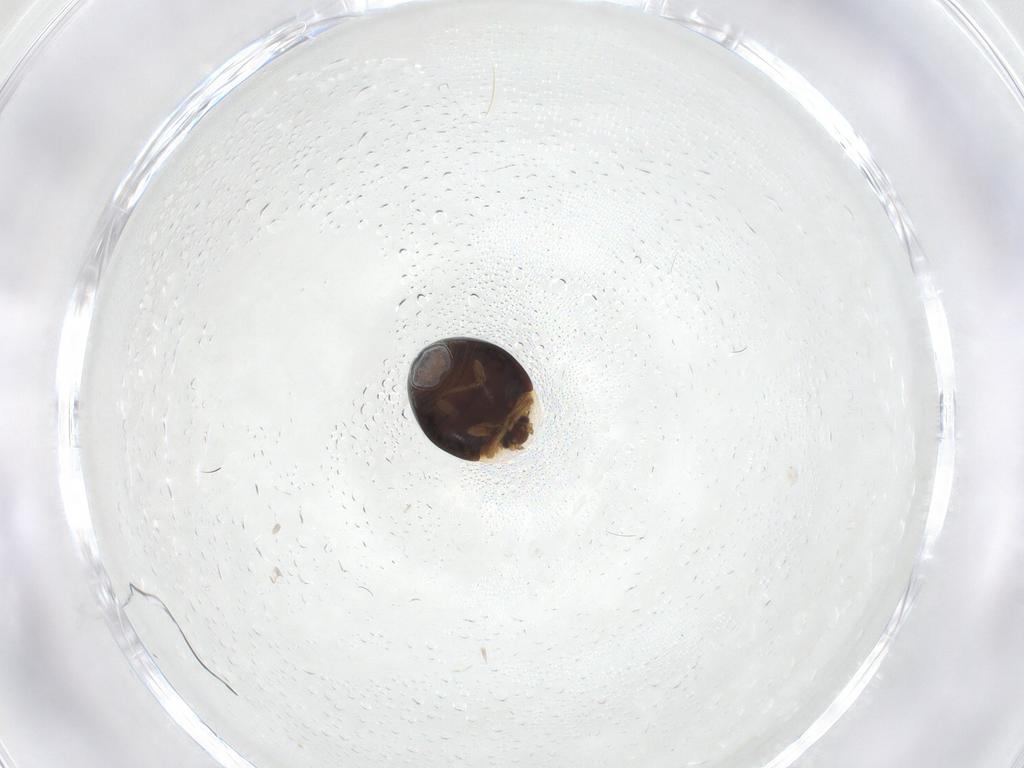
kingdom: Animalia
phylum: Arthropoda
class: Insecta
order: Coleoptera
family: Corylophidae
